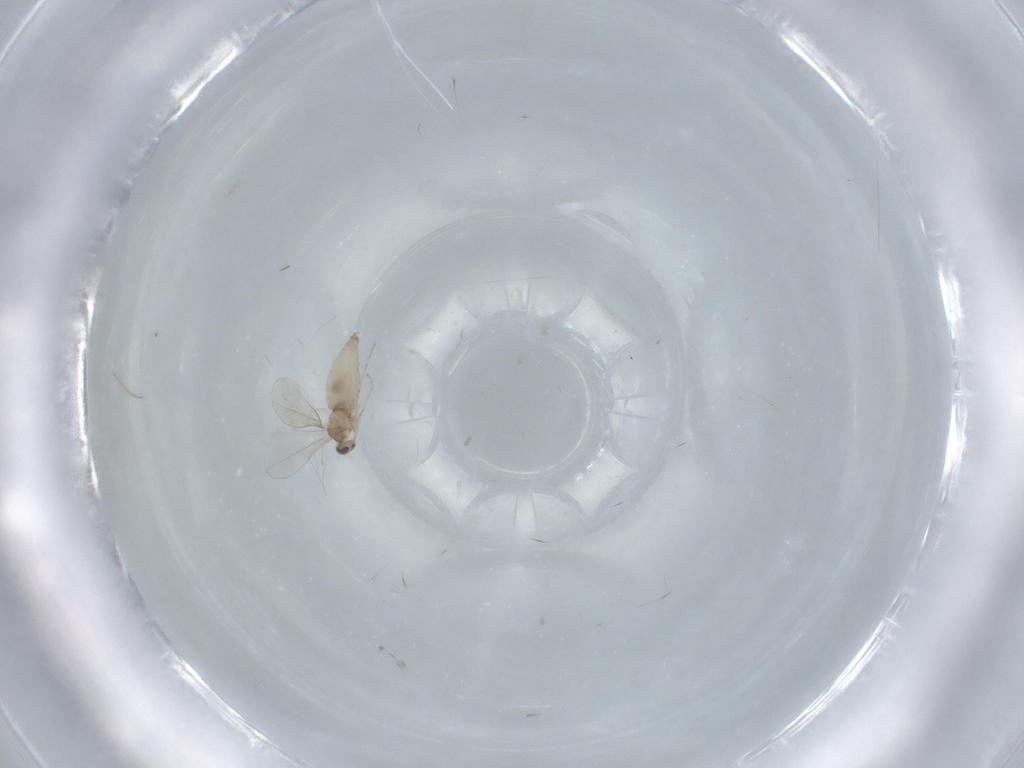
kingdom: Animalia
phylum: Arthropoda
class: Insecta
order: Diptera
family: Cecidomyiidae
